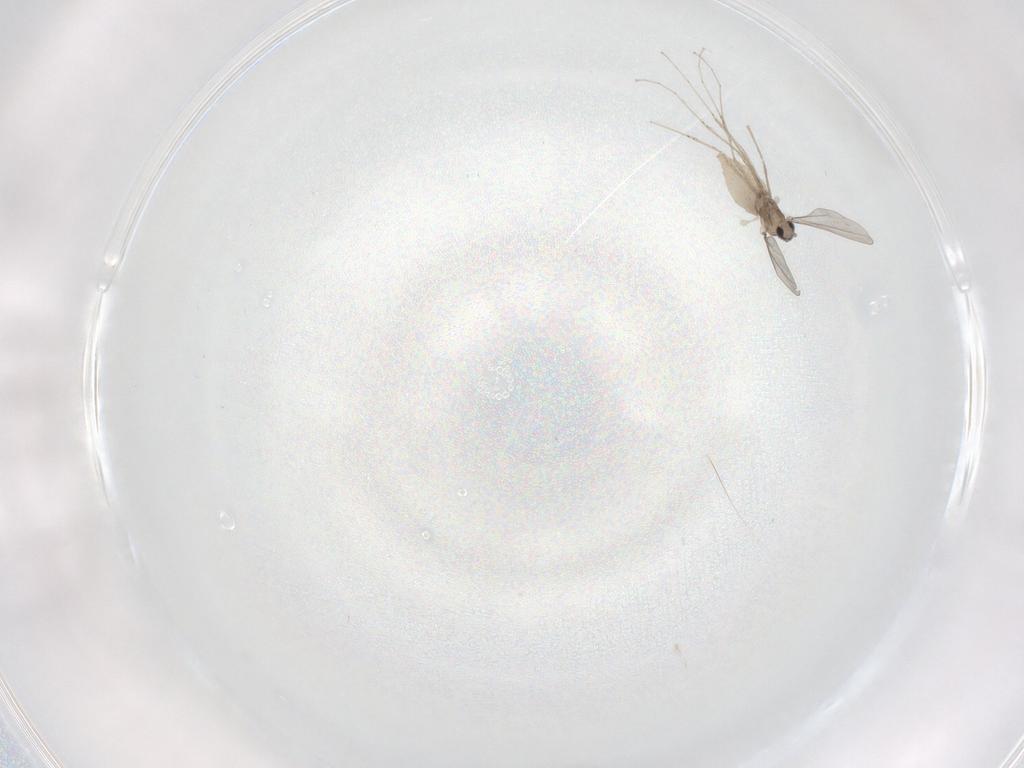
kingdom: Animalia
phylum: Arthropoda
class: Insecta
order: Diptera
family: Cecidomyiidae
